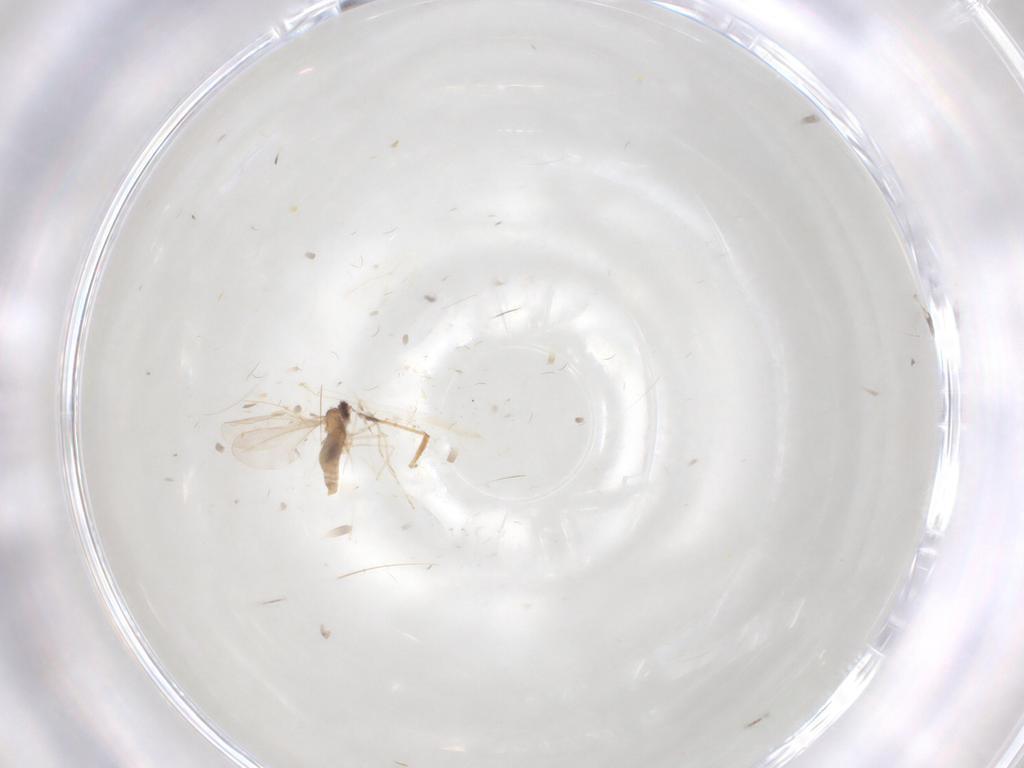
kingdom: Animalia
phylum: Arthropoda
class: Insecta
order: Diptera
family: Cecidomyiidae
